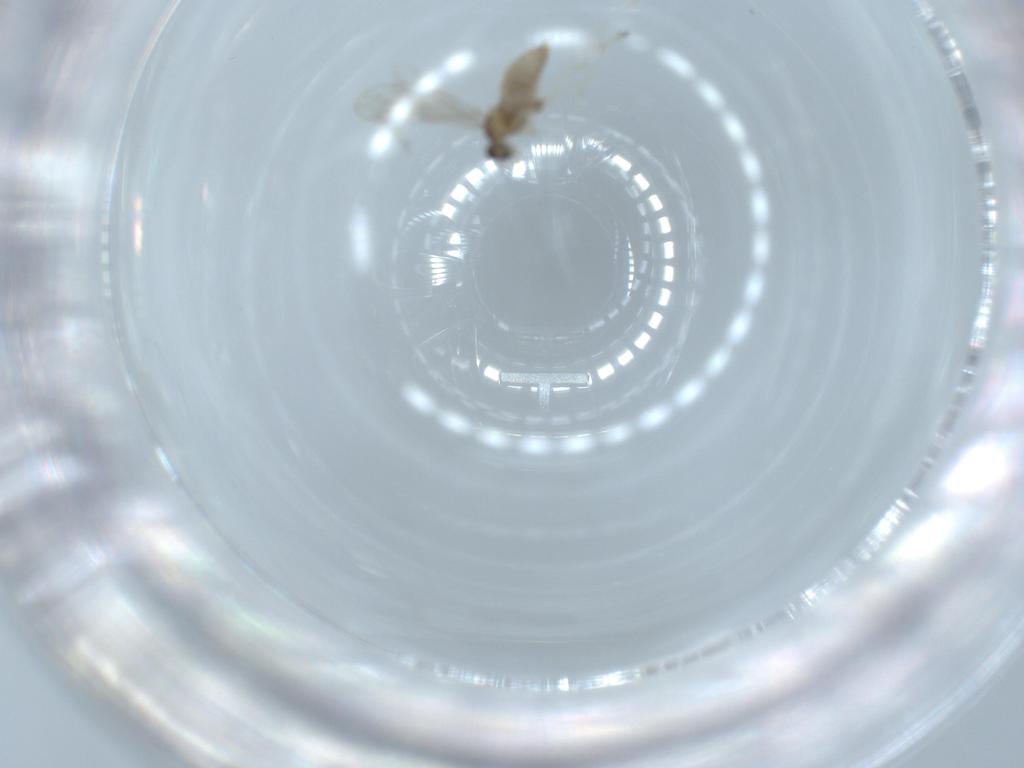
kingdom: Animalia
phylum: Arthropoda
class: Insecta
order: Diptera
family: Cecidomyiidae
